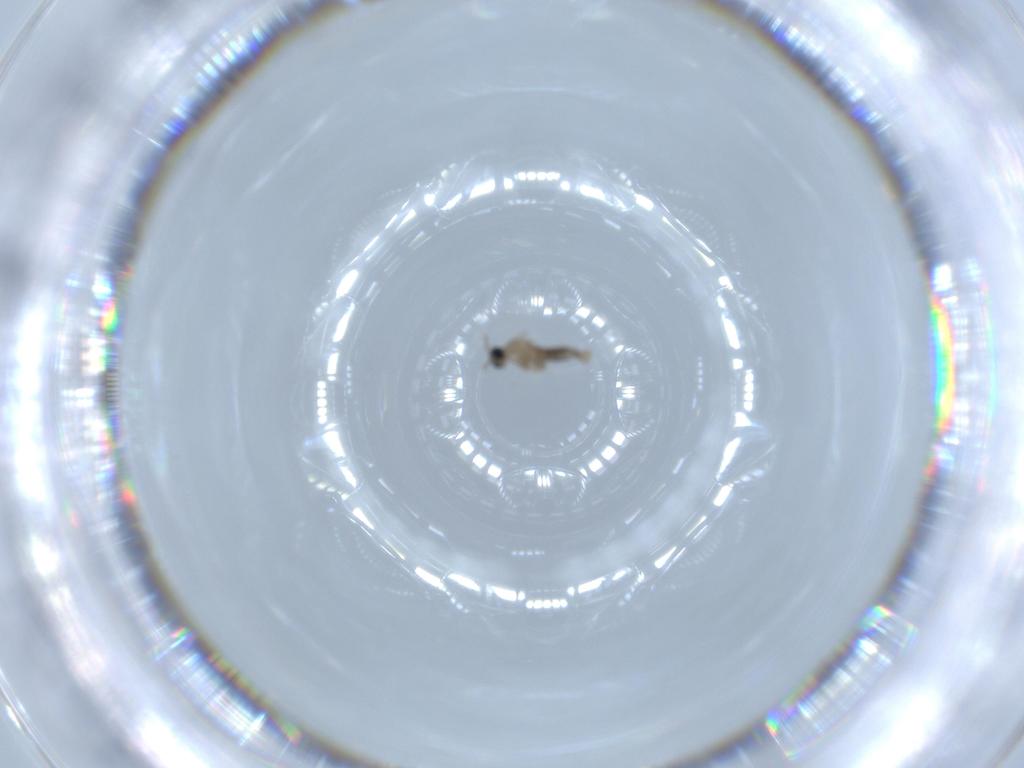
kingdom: Animalia
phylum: Arthropoda
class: Insecta
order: Diptera
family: Cecidomyiidae
